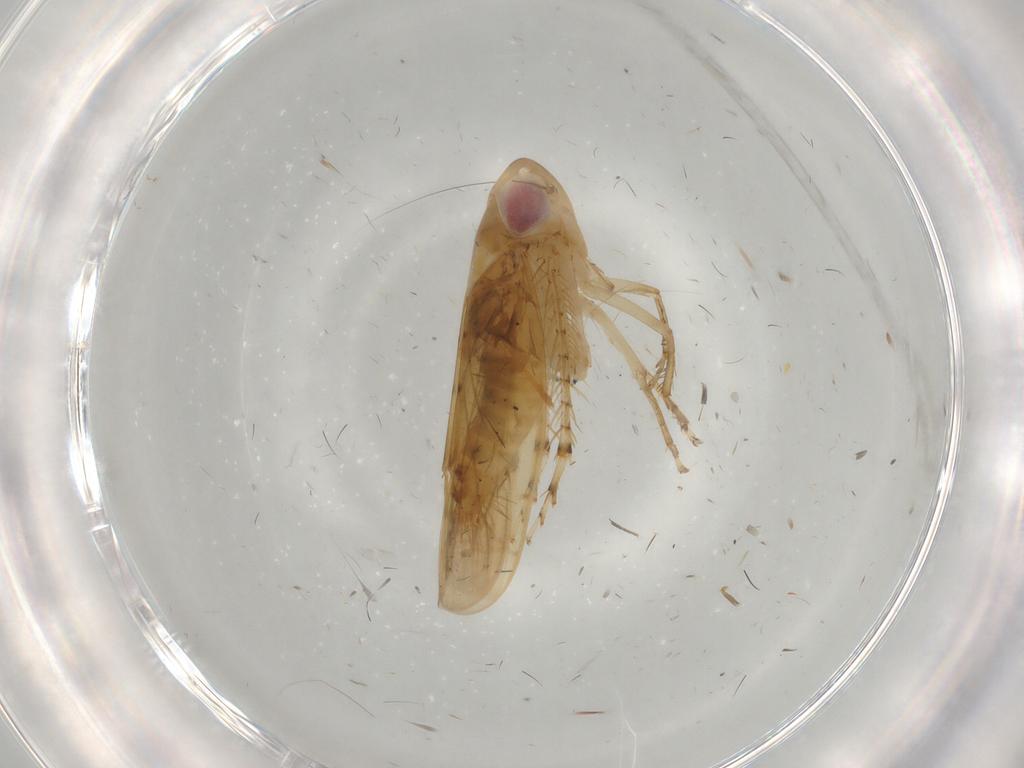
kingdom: Animalia
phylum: Arthropoda
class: Insecta
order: Hemiptera
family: Cicadellidae
